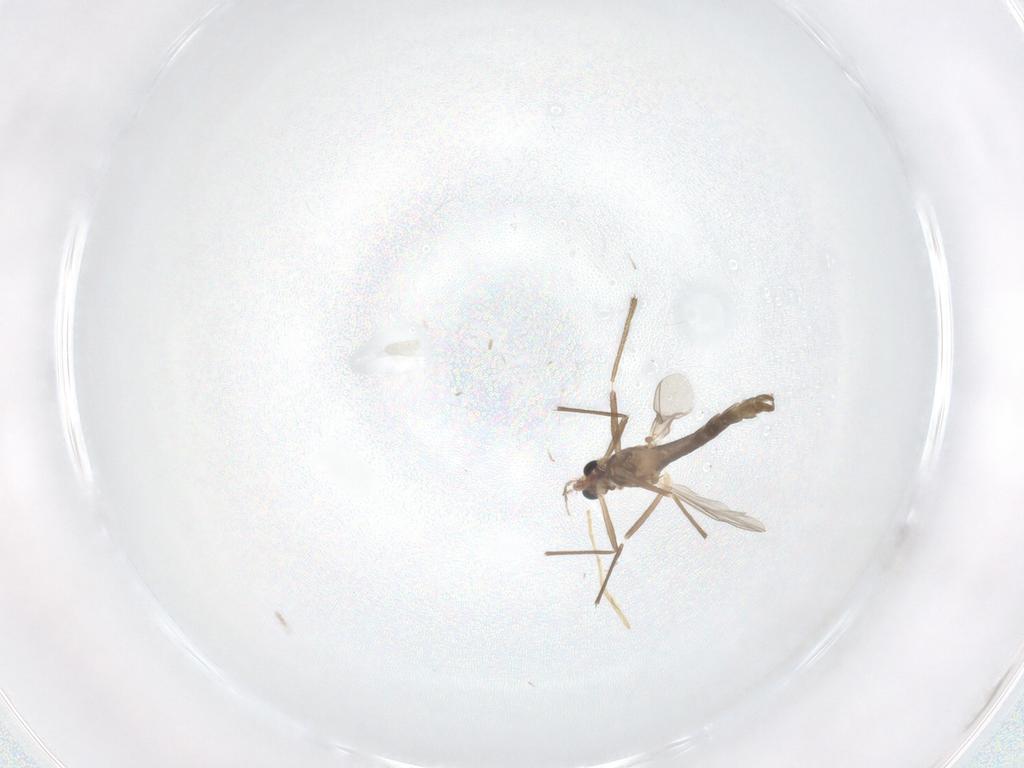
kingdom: Animalia
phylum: Arthropoda
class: Insecta
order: Diptera
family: Chironomidae
